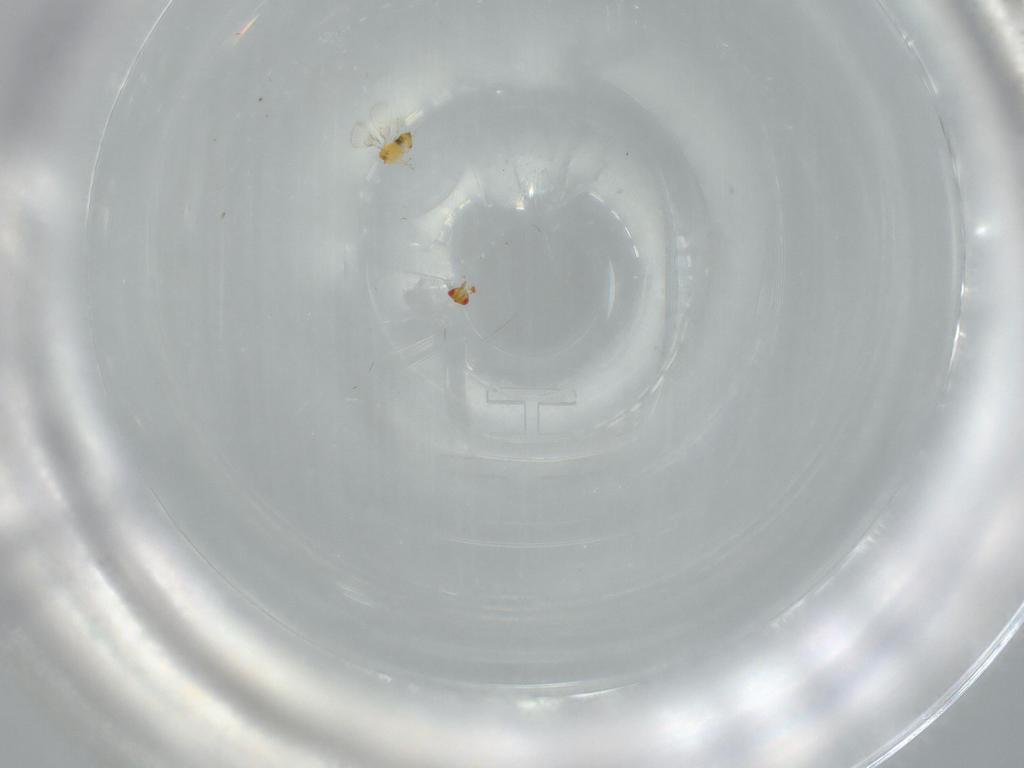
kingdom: Animalia
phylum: Arthropoda
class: Insecta
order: Hymenoptera
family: Trichogrammatidae
